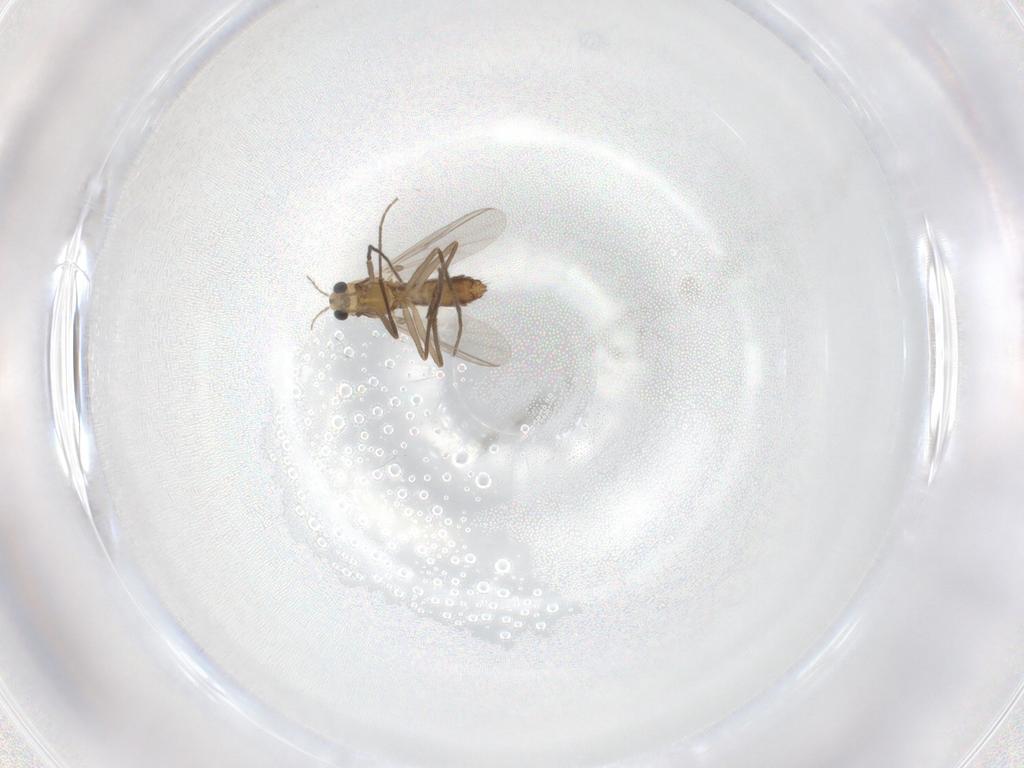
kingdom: Animalia
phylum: Arthropoda
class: Insecta
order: Diptera
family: Chironomidae
